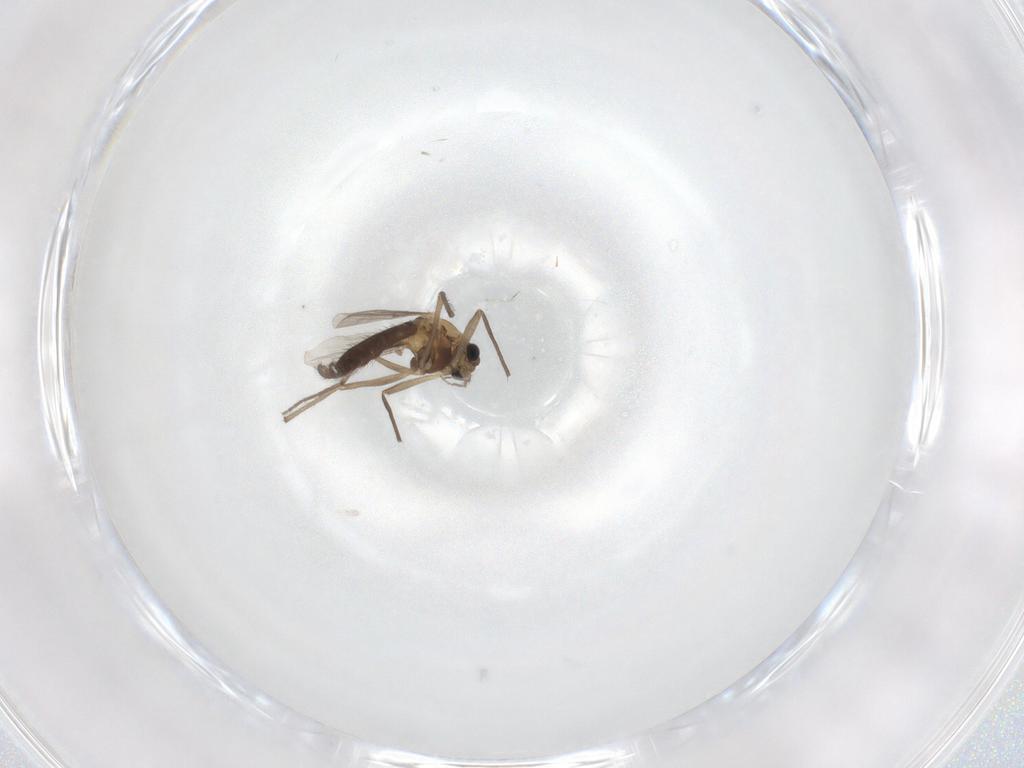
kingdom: Animalia
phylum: Arthropoda
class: Insecta
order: Diptera
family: Chironomidae
